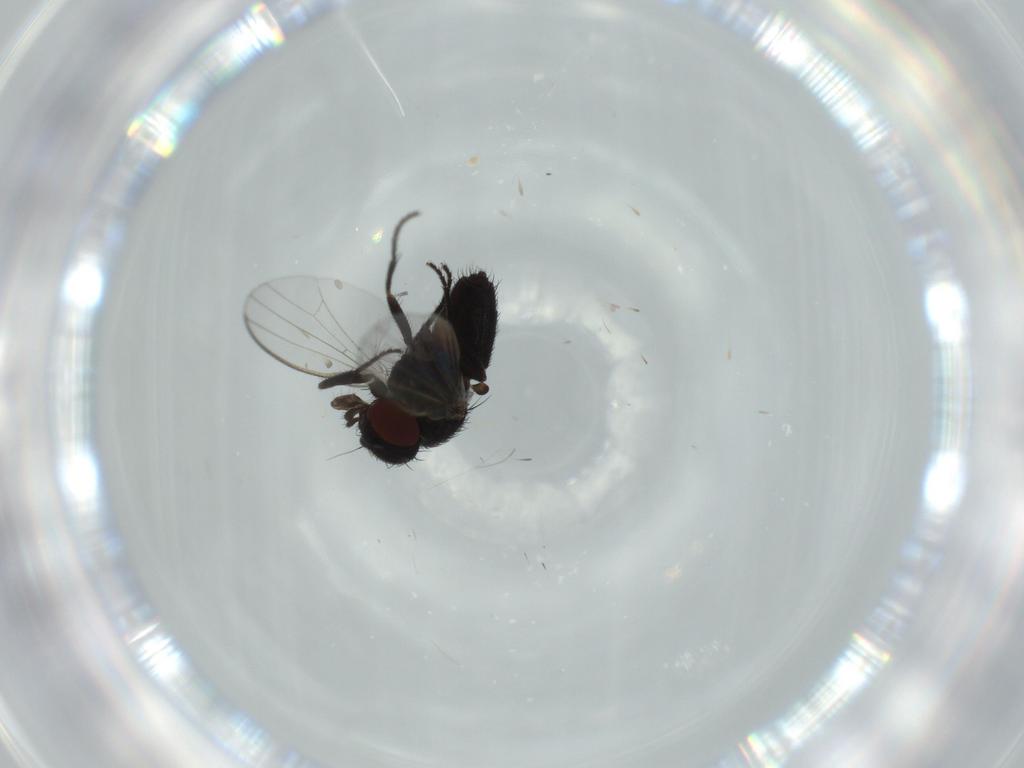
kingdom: Animalia
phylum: Arthropoda
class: Insecta
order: Diptera
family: Milichiidae
